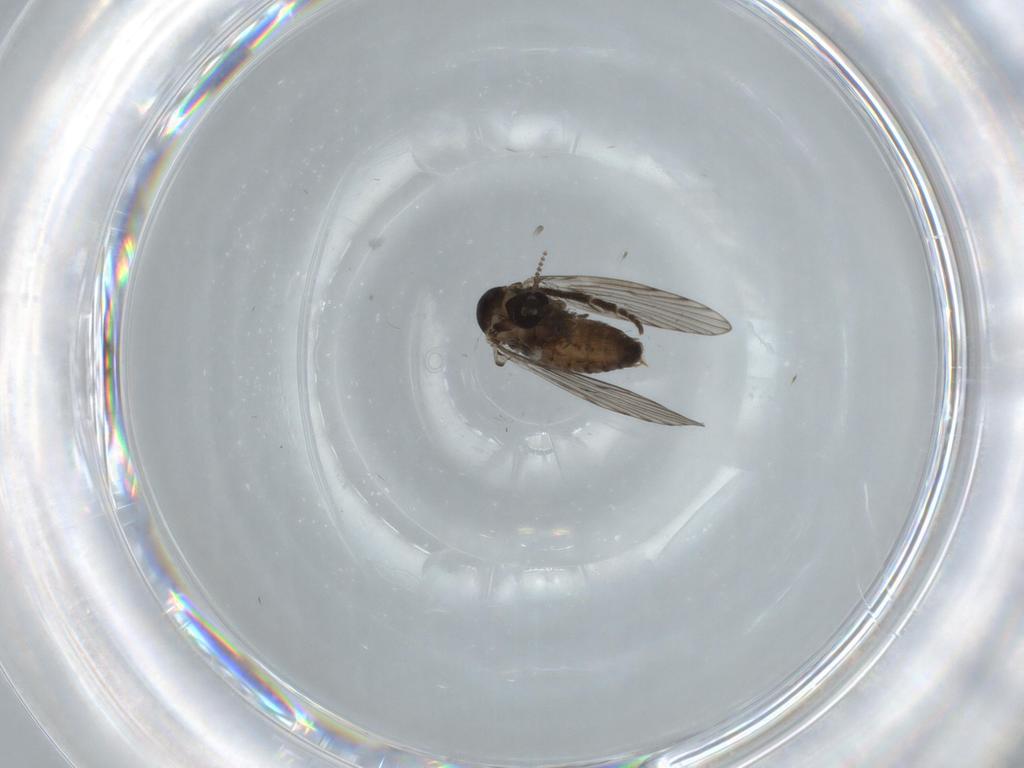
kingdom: Animalia
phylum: Arthropoda
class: Insecta
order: Diptera
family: Psychodidae
